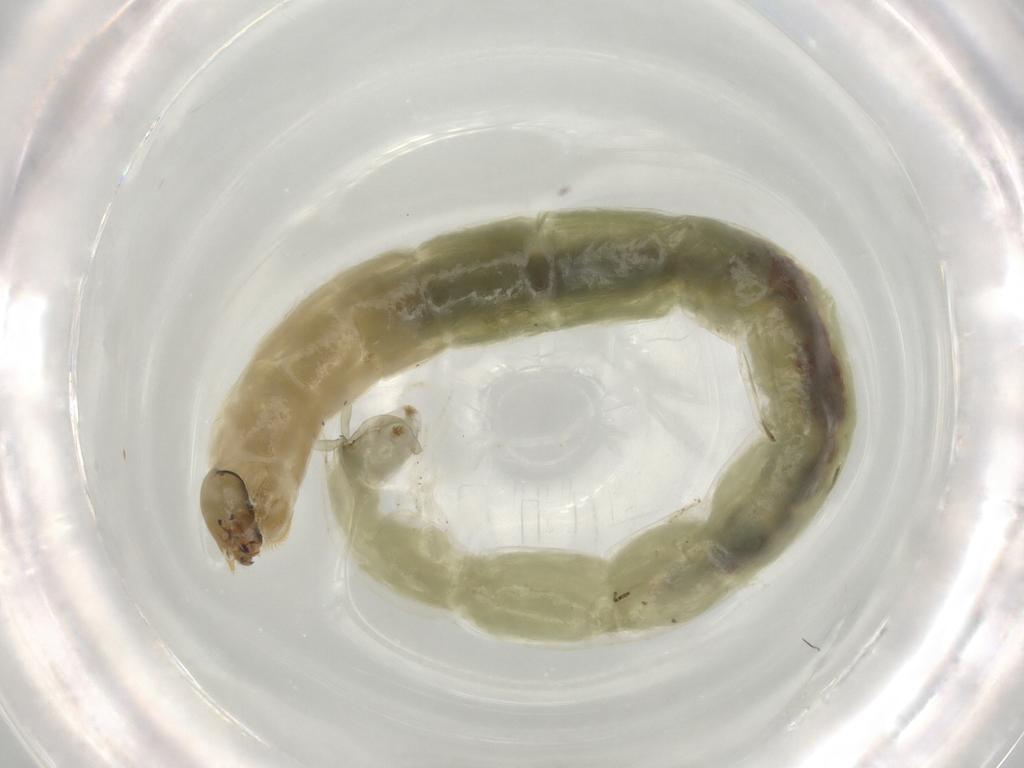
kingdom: Animalia
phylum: Arthropoda
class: Insecta
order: Diptera
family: Chironomidae
